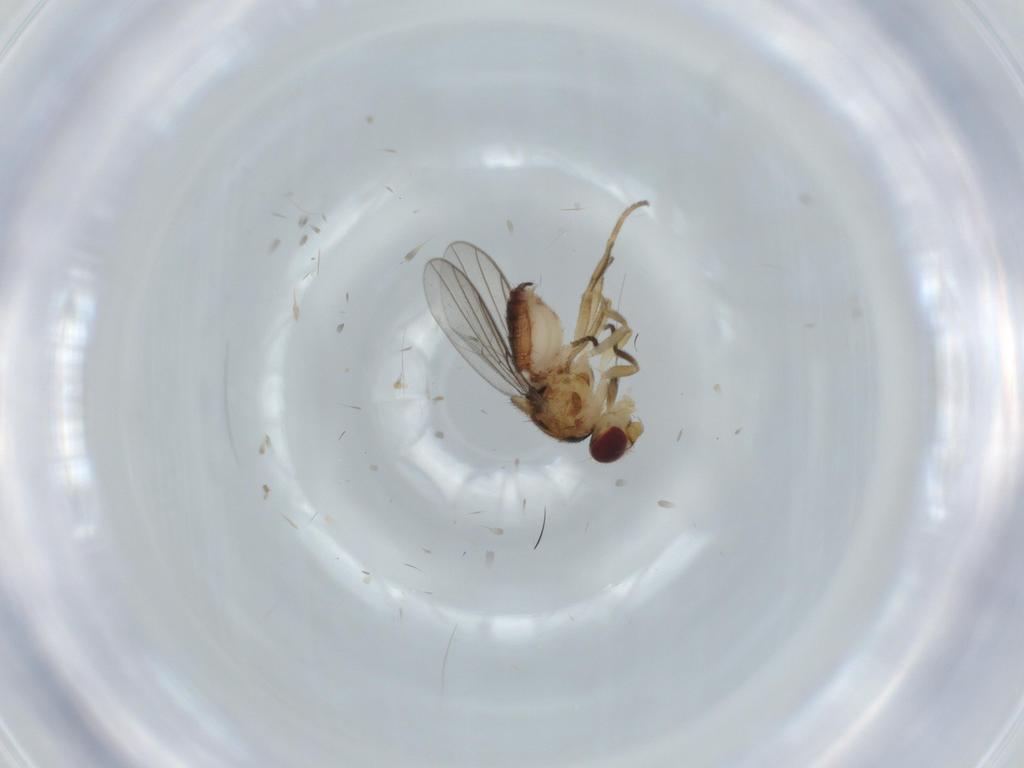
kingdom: Animalia
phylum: Arthropoda
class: Insecta
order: Diptera
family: Chloropidae
